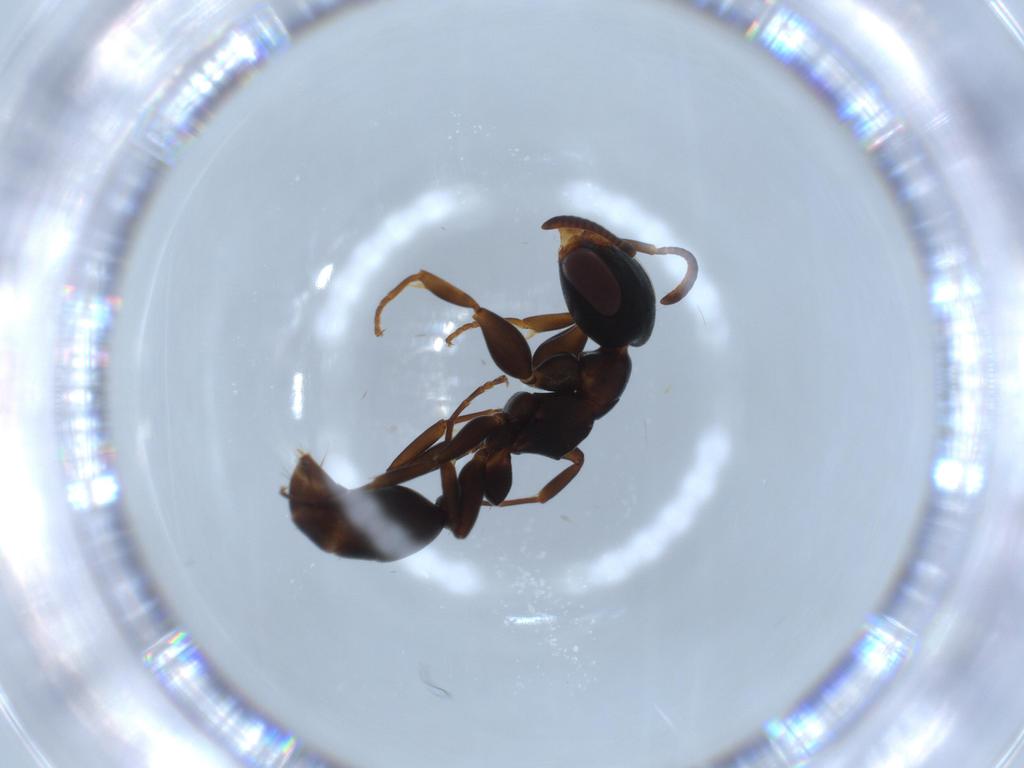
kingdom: Animalia
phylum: Arthropoda
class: Insecta
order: Hymenoptera
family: Formicidae
